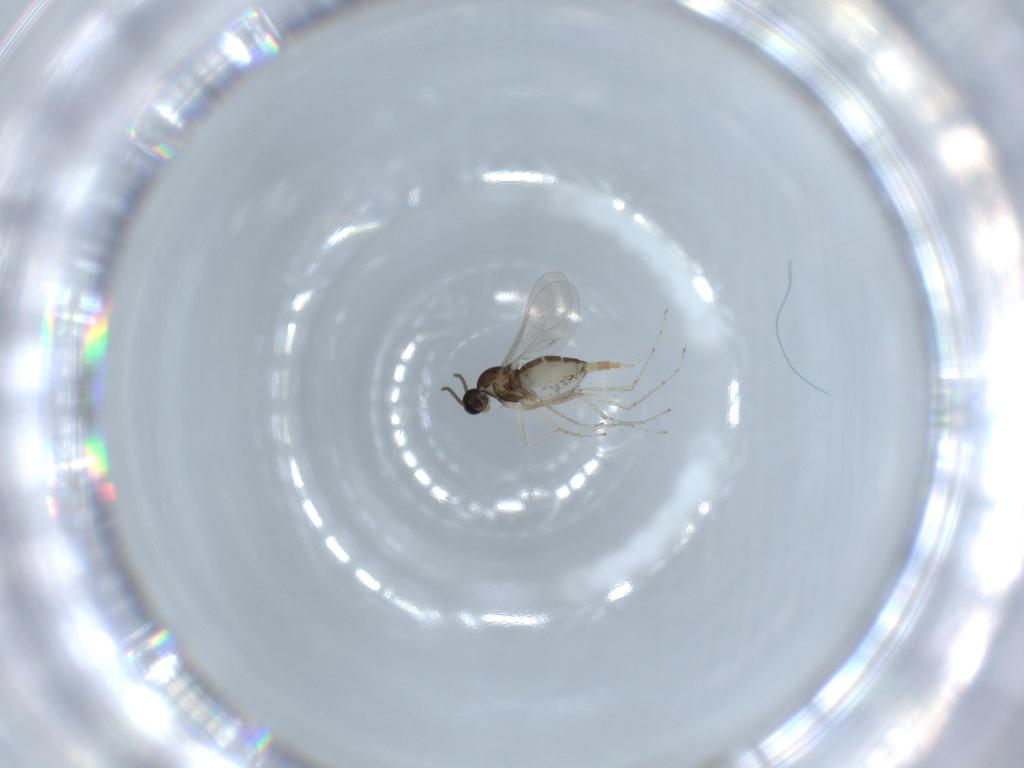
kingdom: Animalia
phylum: Arthropoda
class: Insecta
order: Diptera
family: Cecidomyiidae
